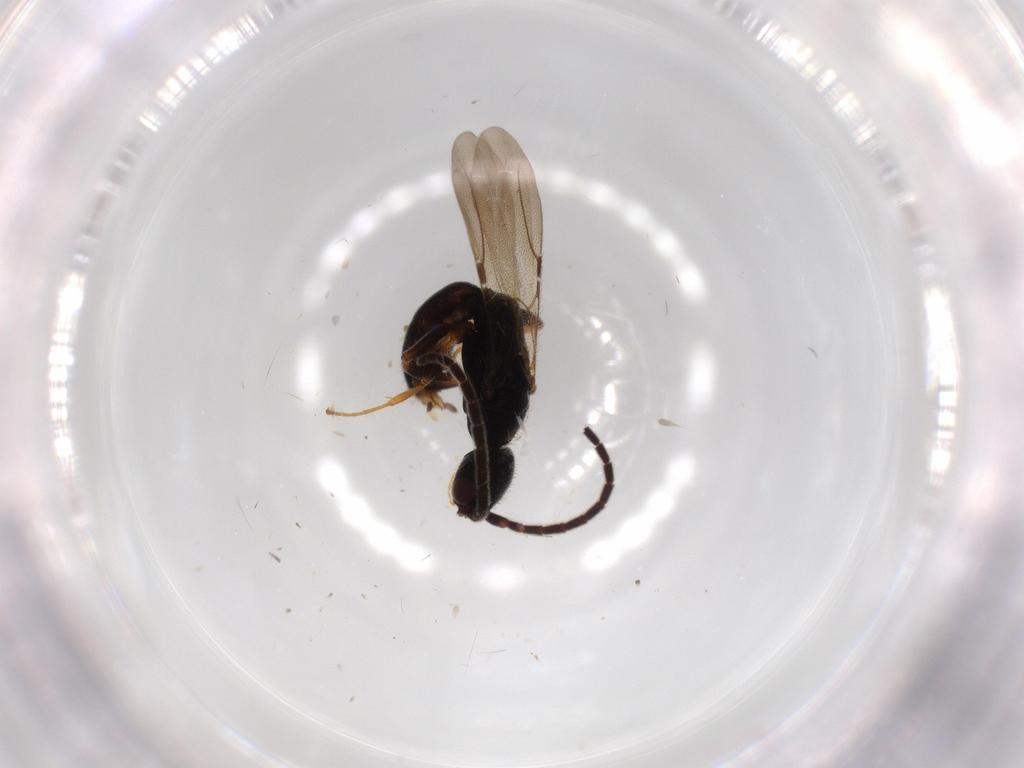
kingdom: Animalia
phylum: Arthropoda
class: Insecta
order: Hymenoptera
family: Bethylidae
